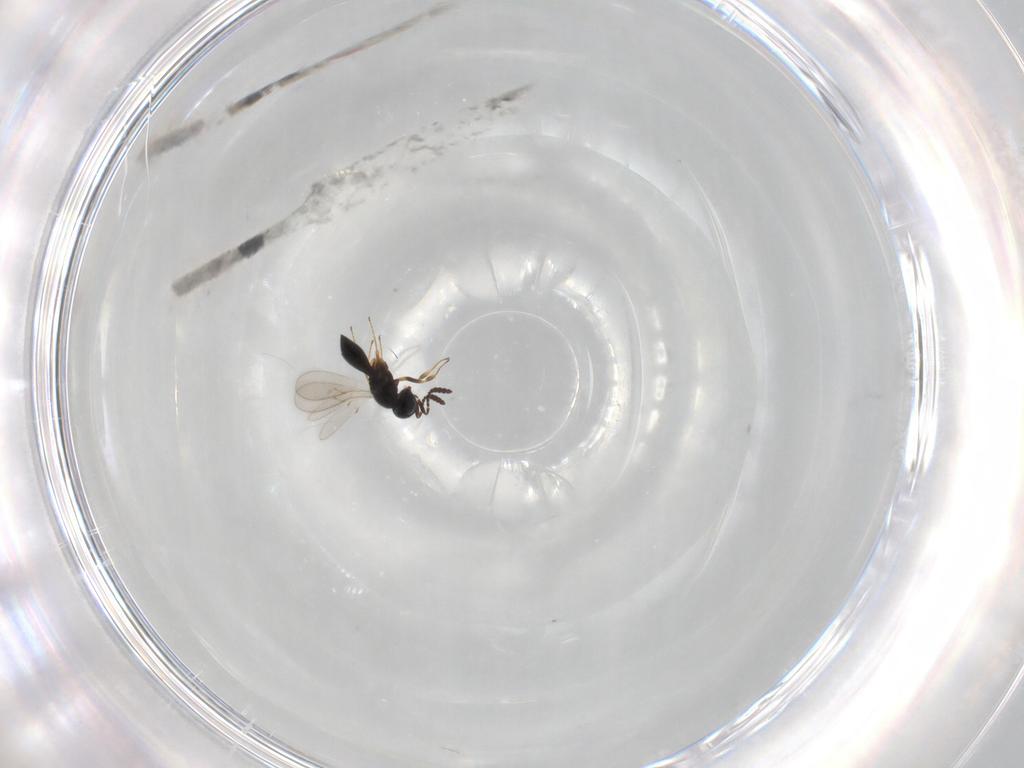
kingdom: Animalia
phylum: Arthropoda
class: Insecta
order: Hymenoptera
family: Scelionidae
